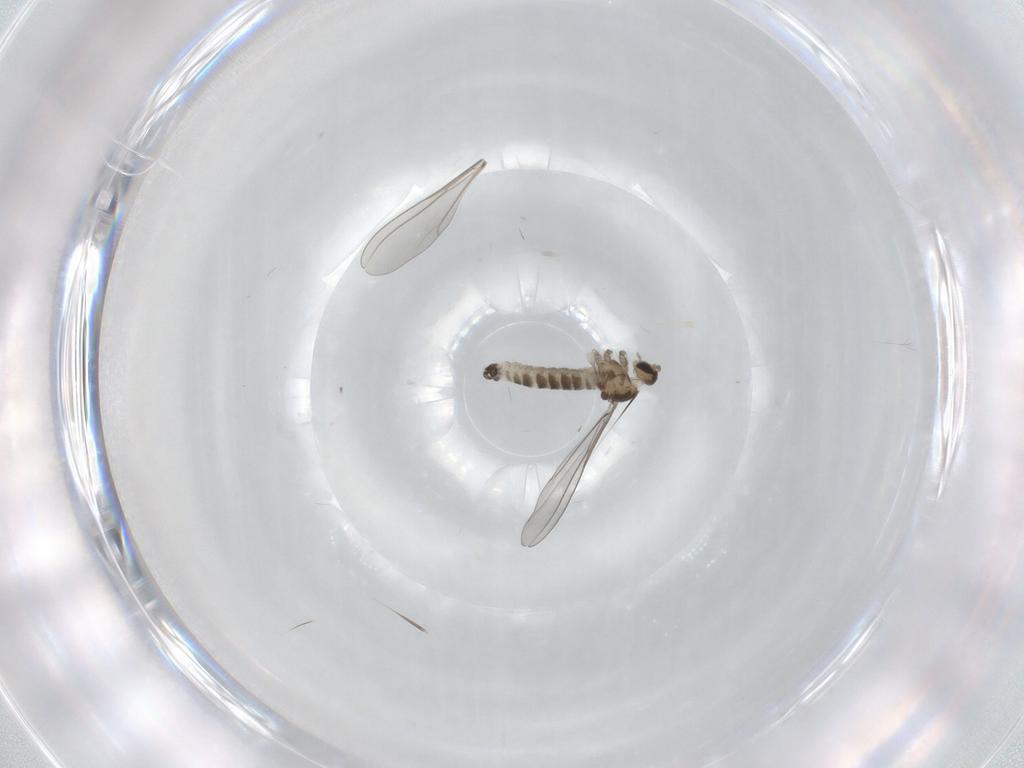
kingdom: Animalia
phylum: Arthropoda
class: Insecta
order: Diptera
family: Cecidomyiidae
